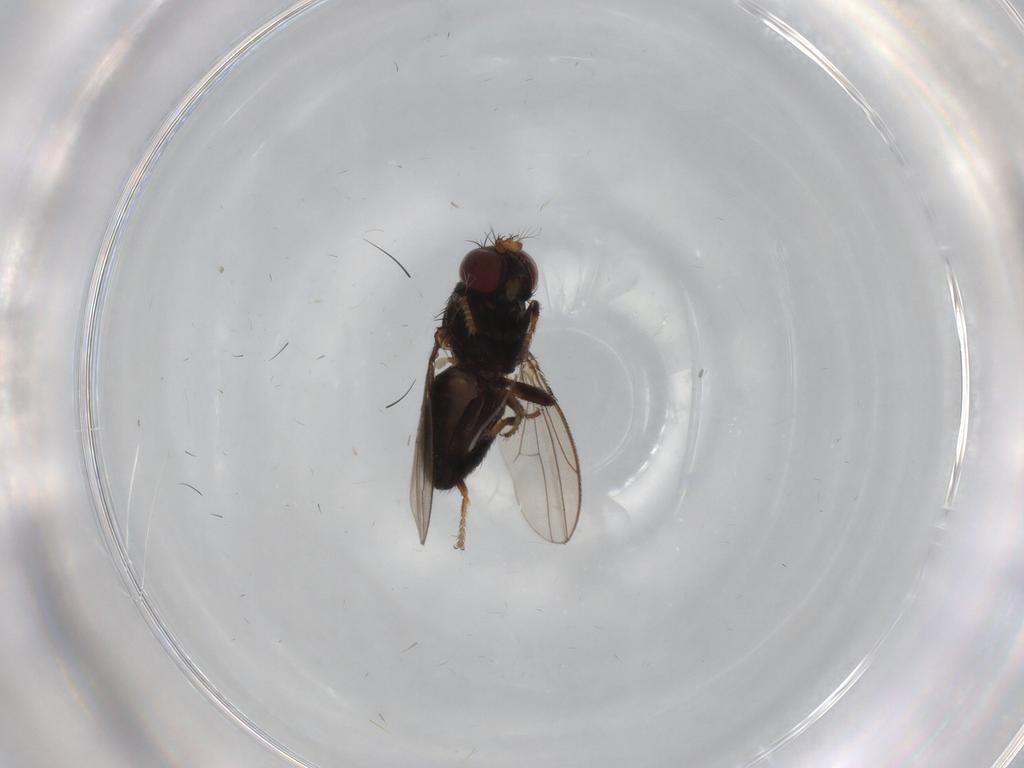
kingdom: Animalia
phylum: Arthropoda
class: Insecta
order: Diptera
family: Ephydridae
